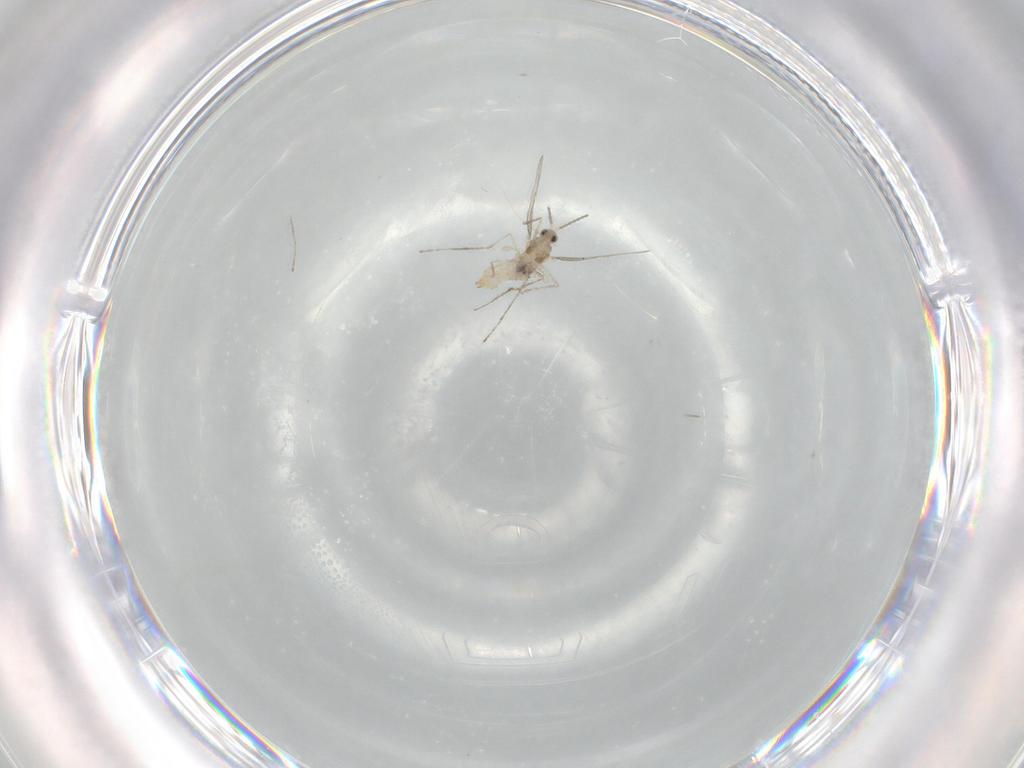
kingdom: Animalia
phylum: Arthropoda
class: Insecta
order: Diptera
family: Cecidomyiidae
